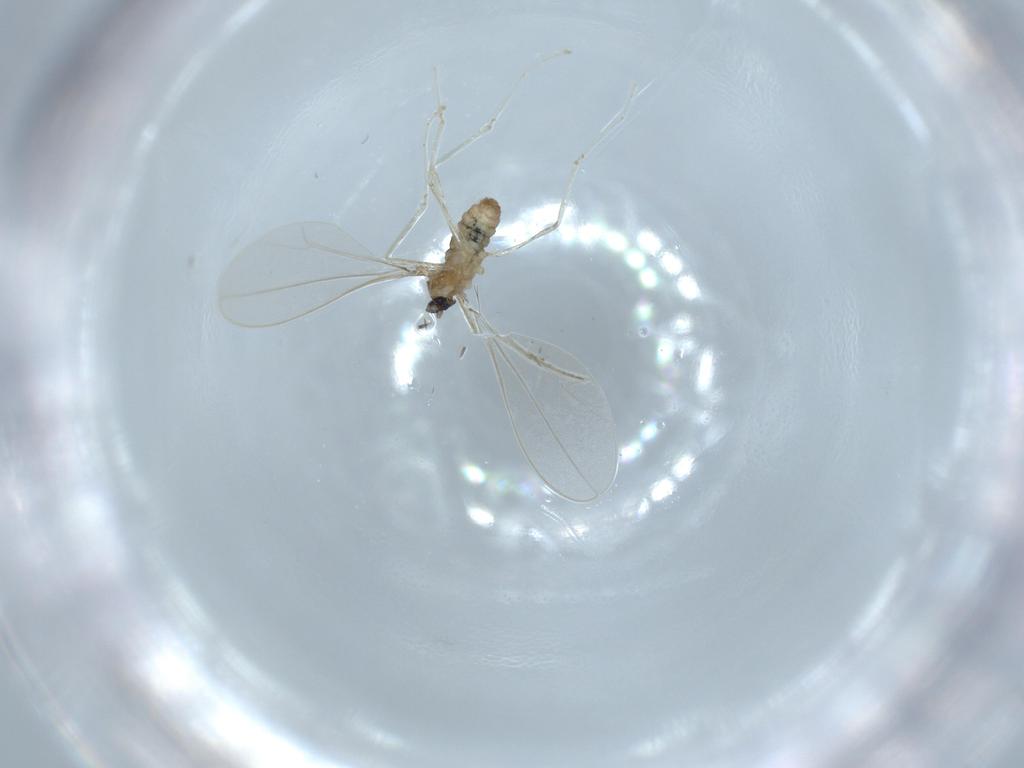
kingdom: Animalia
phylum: Arthropoda
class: Insecta
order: Diptera
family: Cecidomyiidae
